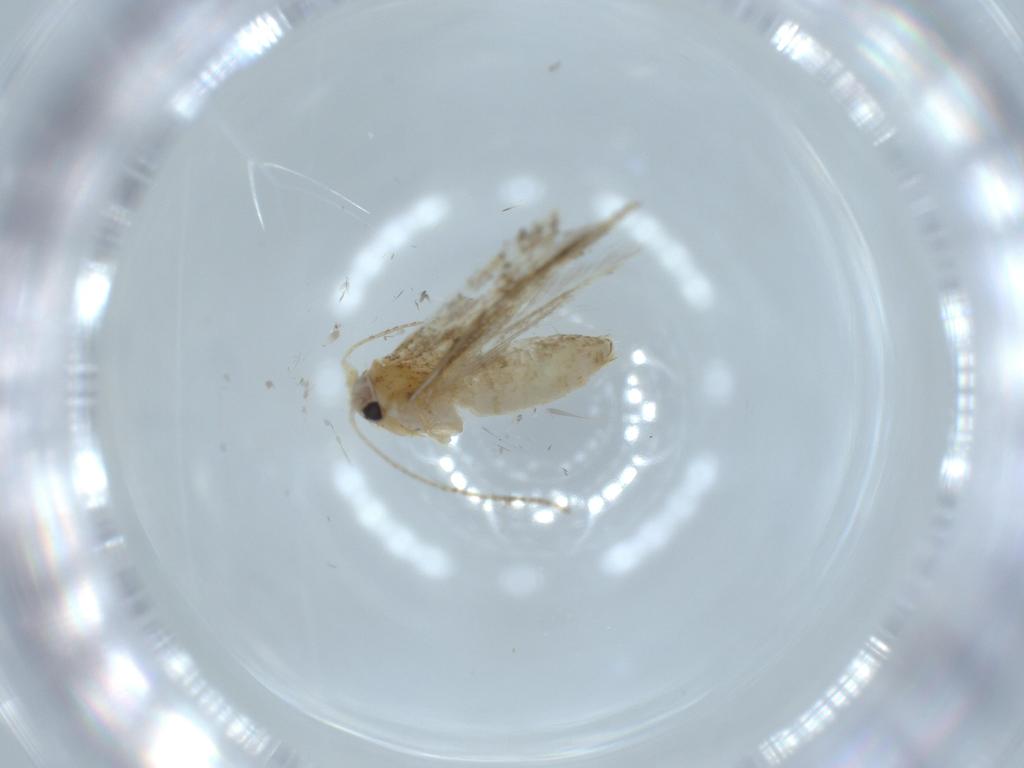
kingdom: Animalia
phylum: Arthropoda
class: Insecta
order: Lepidoptera
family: Bucculatricidae
